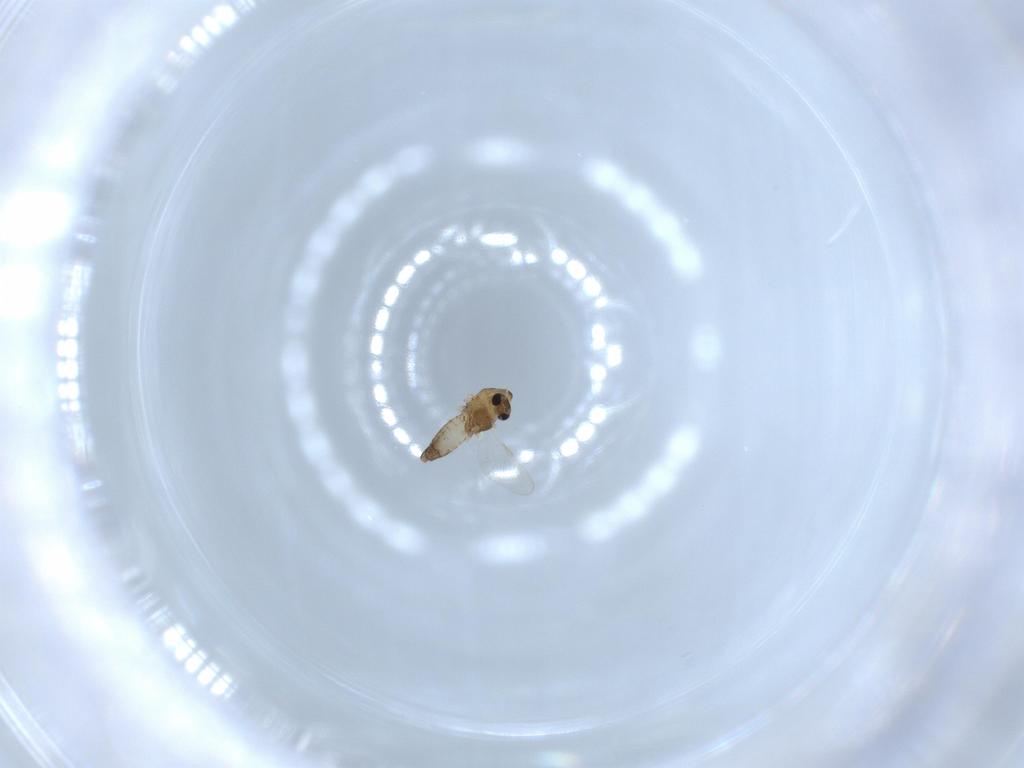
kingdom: Animalia
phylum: Arthropoda
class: Insecta
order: Diptera
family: Chironomidae
